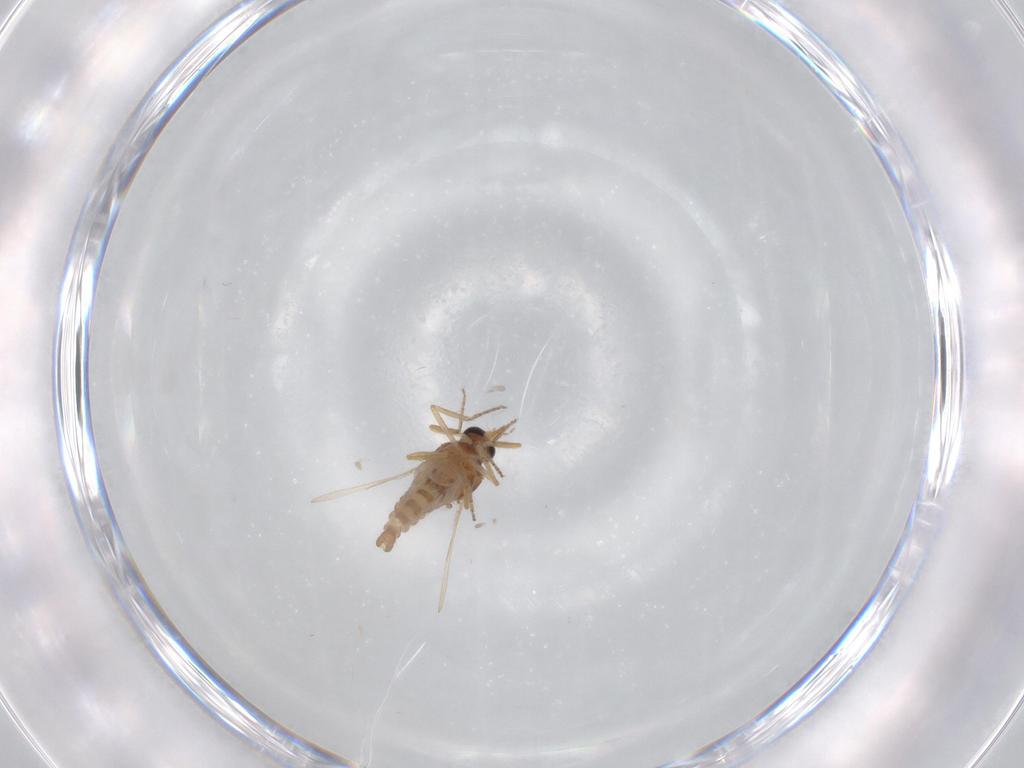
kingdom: Animalia
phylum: Arthropoda
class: Insecta
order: Diptera
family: Ceratopogonidae
